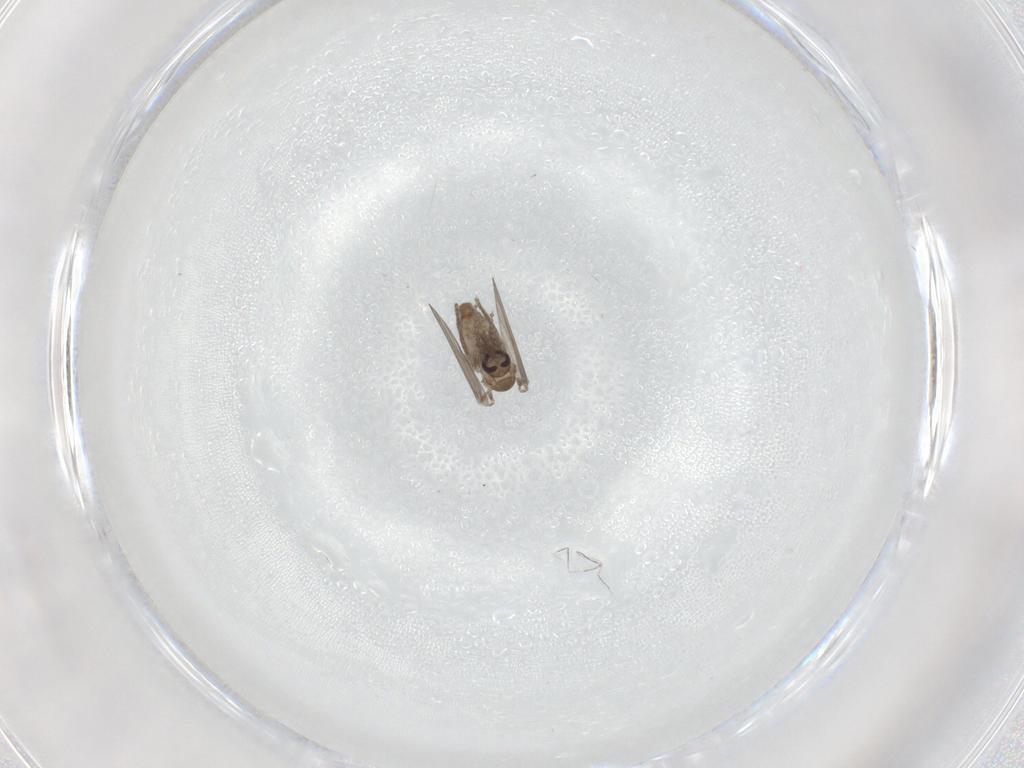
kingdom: Animalia
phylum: Arthropoda
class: Insecta
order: Diptera
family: Psychodidae
